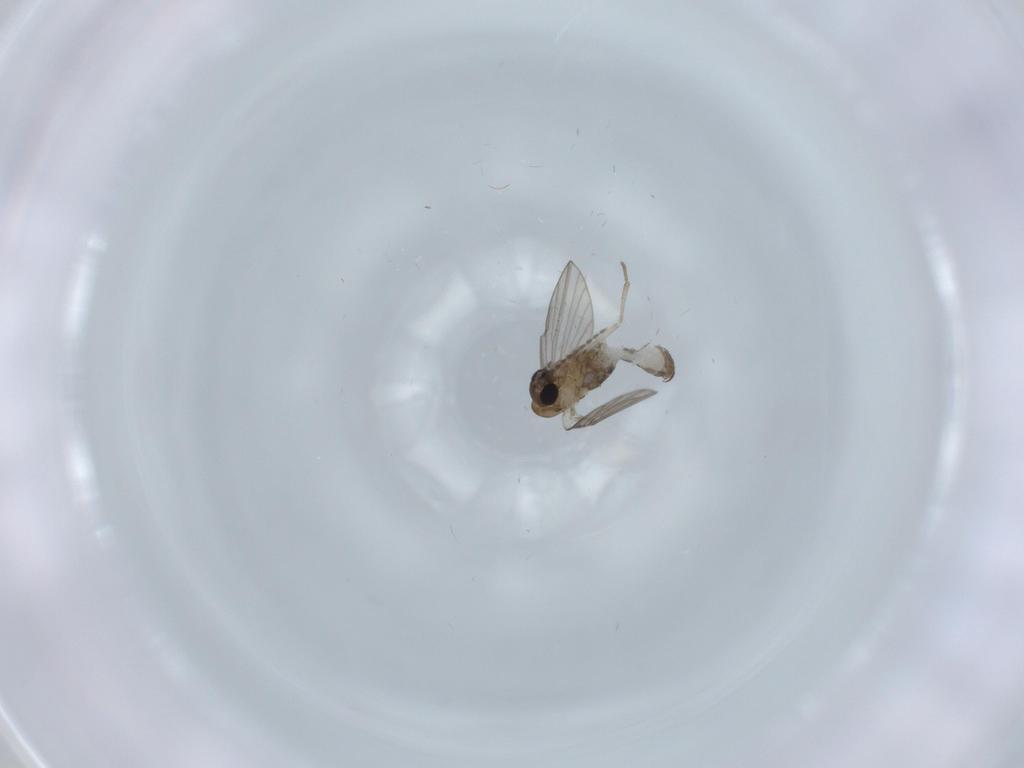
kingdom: Animalia
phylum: Arthropoda
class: Insecta
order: Diptera
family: Psychodidae
